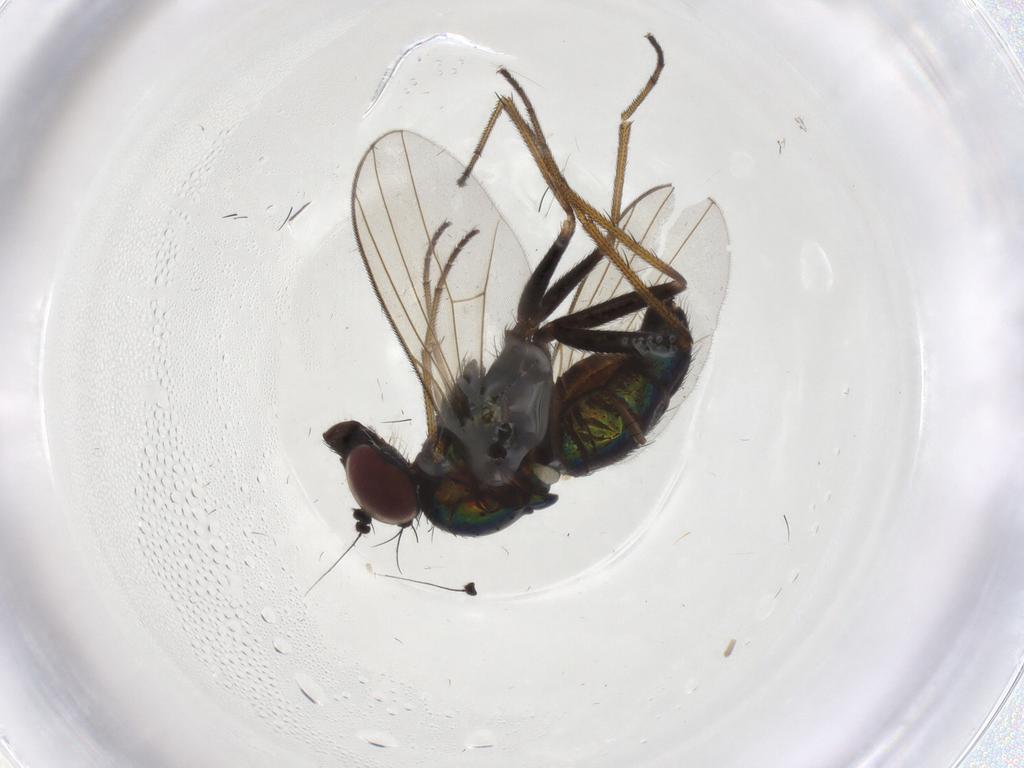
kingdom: Animalia
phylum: Arthropoda
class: Insecta
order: Diptera
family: Dolichopodidae
